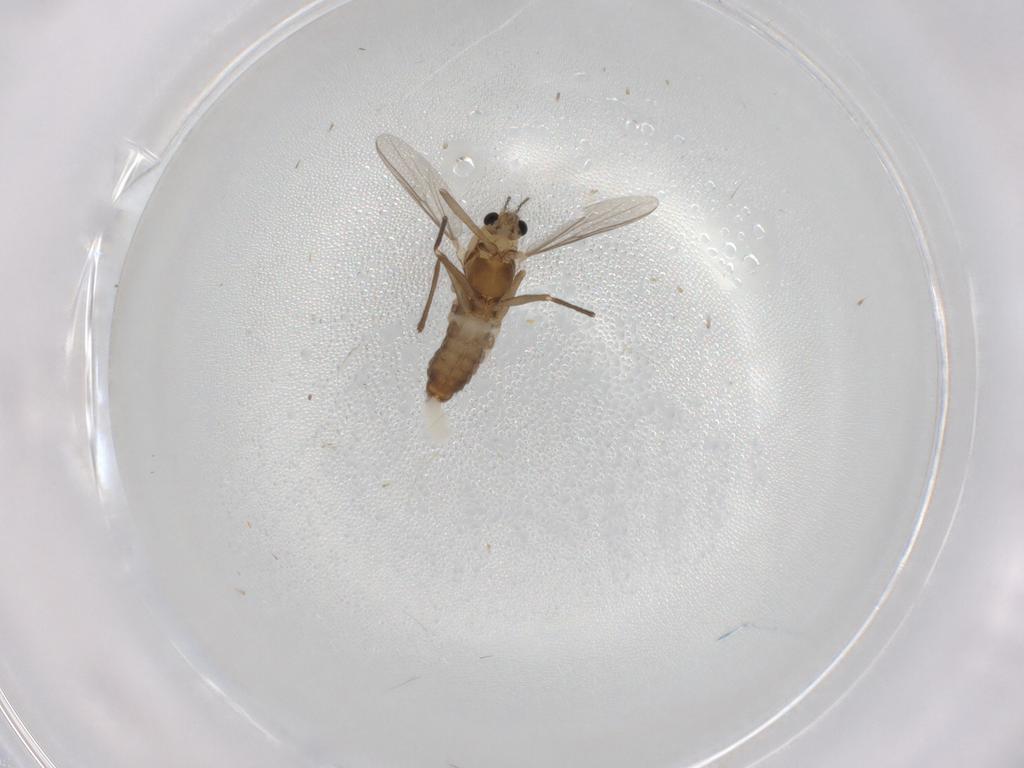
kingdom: Animalia
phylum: Arthropoda
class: Insecta
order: Diptera
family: Chironomidae
